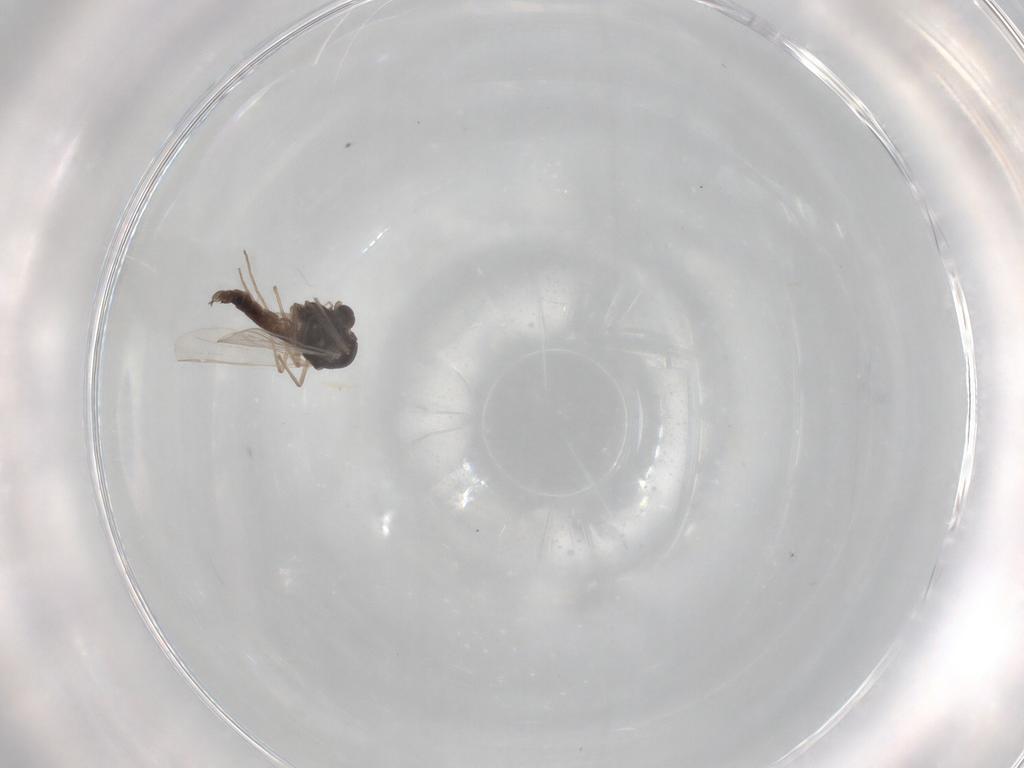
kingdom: Animalia
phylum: Arthropoda
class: Insecta
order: Diptera
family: Chironomidae
